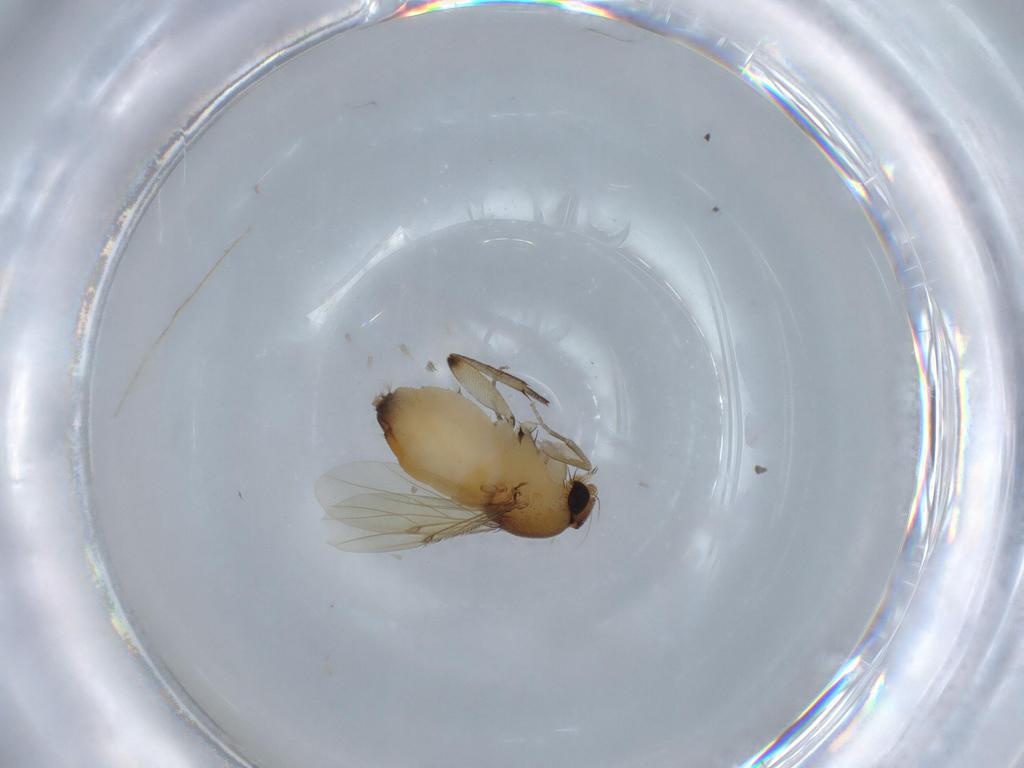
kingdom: Animalia
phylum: Arthropoda
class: Insecta
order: Diptera
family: Phoridae
